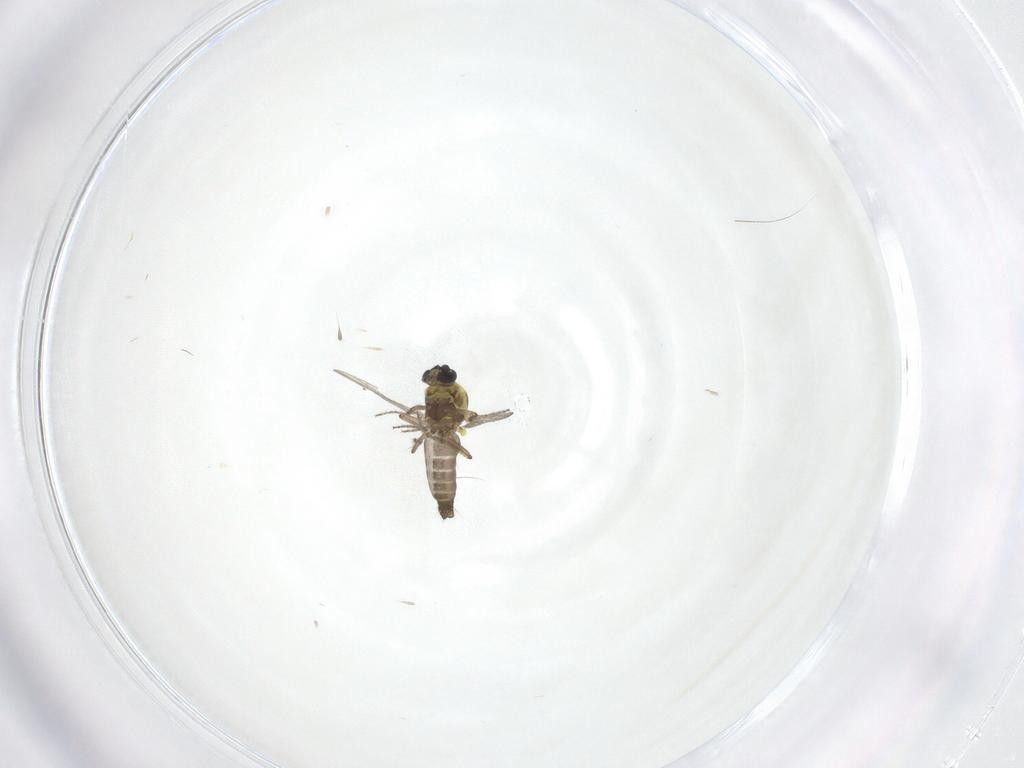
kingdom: Animalia
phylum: Arthropoda
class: Insecta
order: Diptera
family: Ceratopogonidae
